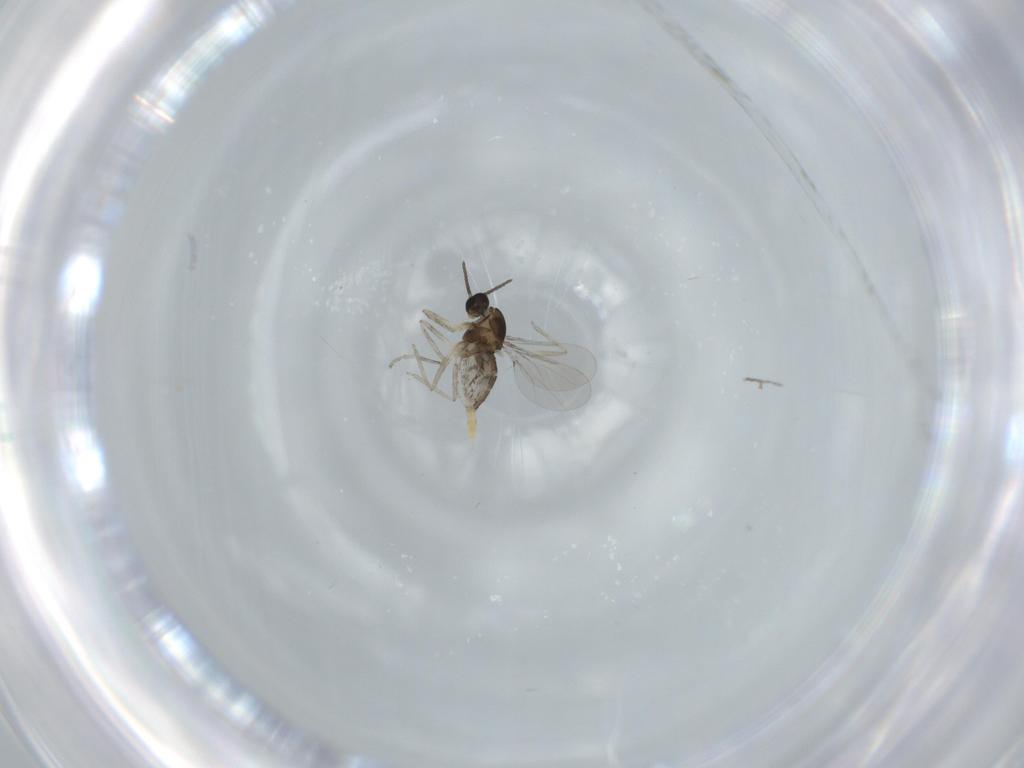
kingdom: Animalia
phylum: Arthropoda
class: Insecta
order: Diptera
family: Cecidomyiidae
